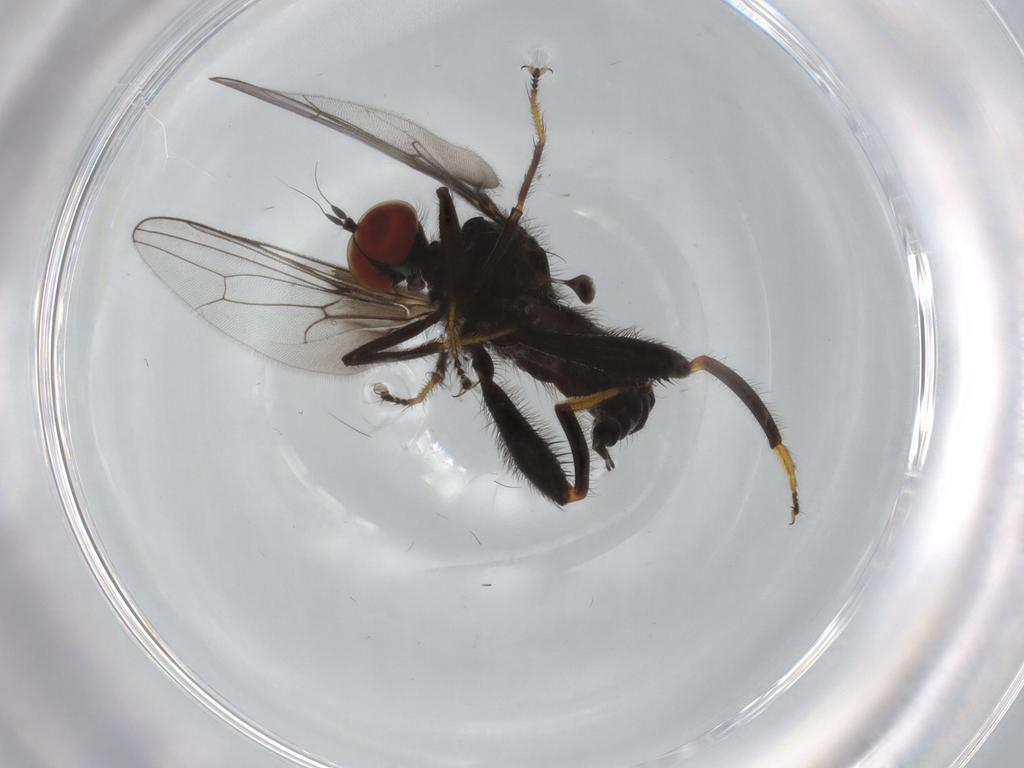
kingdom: Animalia
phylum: Arthropoda
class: Insecta
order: Diptera
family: Hybotidae
